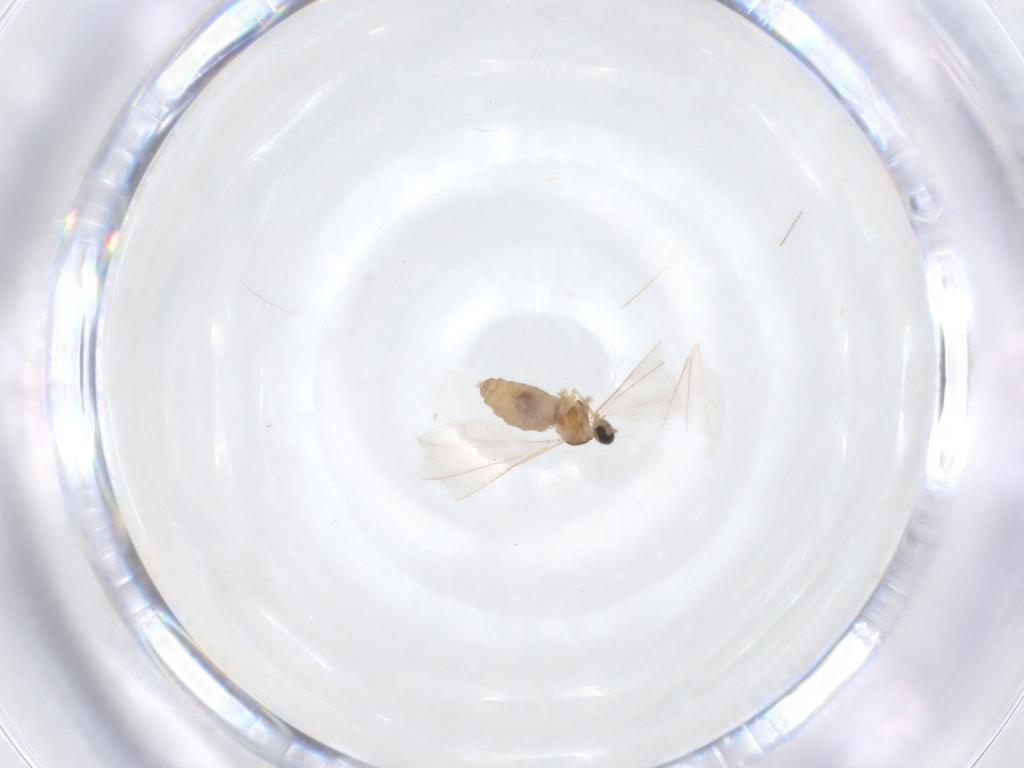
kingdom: Animalia
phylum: Arthropoda
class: Insecta
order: Diptera
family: Cecidomyiidae
